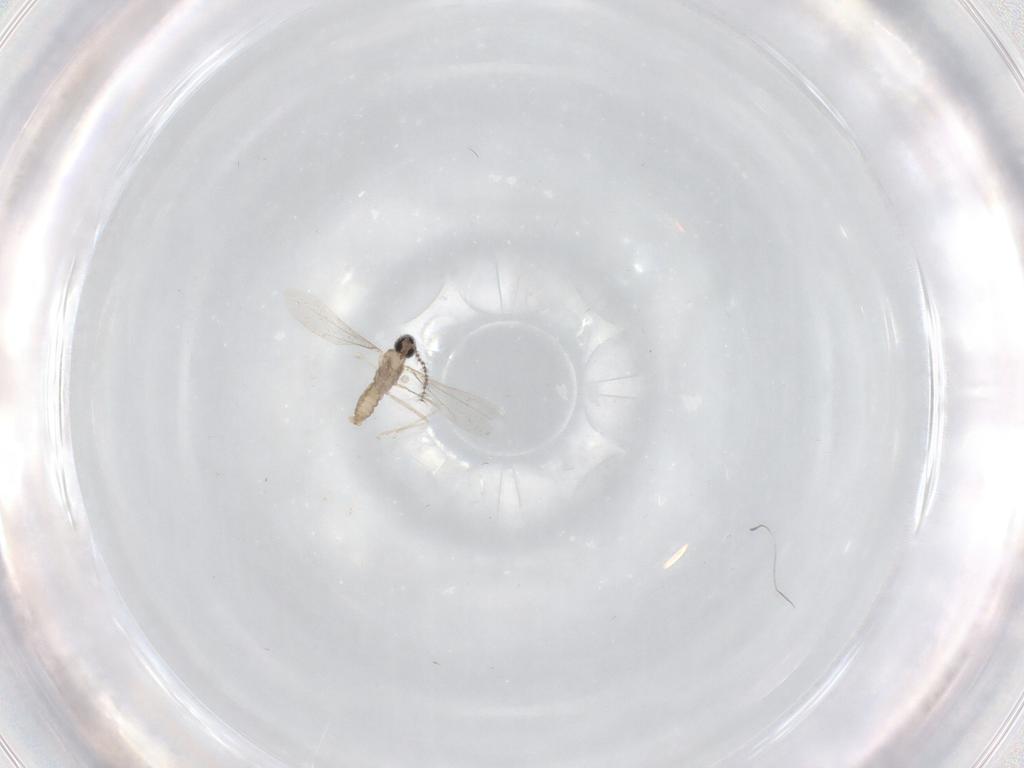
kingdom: Animalia
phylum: Arthropoda
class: Insecta
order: Diptera
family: Cecidomyiidae
